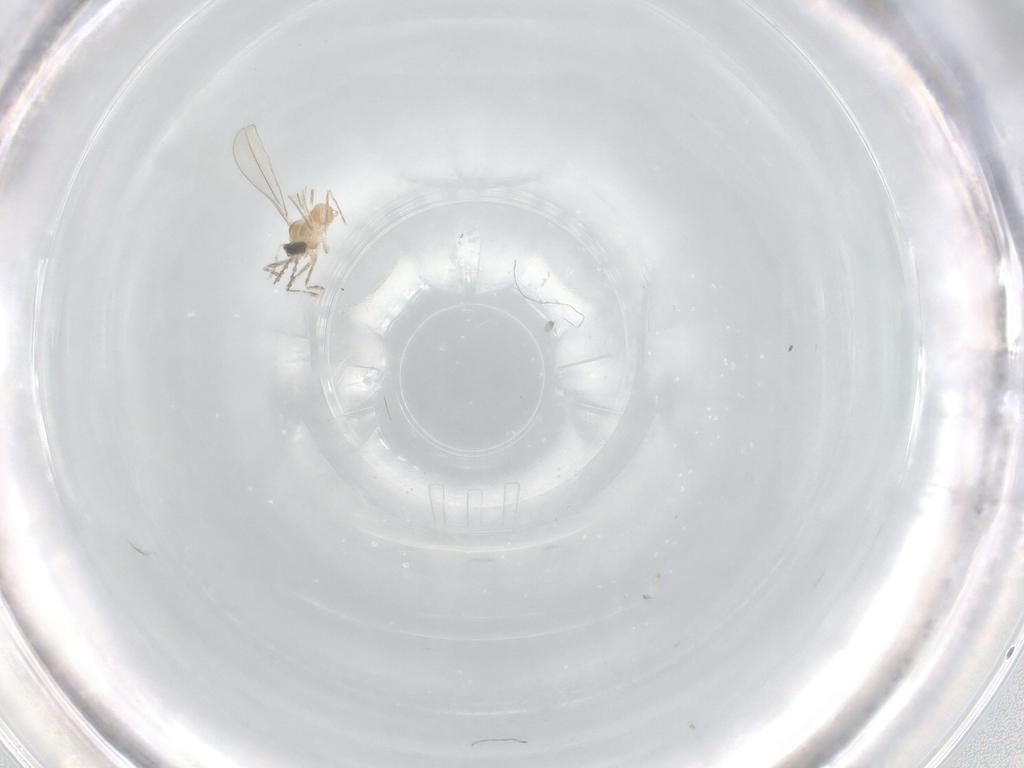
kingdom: Animalia
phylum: Arthropoda
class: Insecta
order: Diptera
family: Cecidomyiidae
